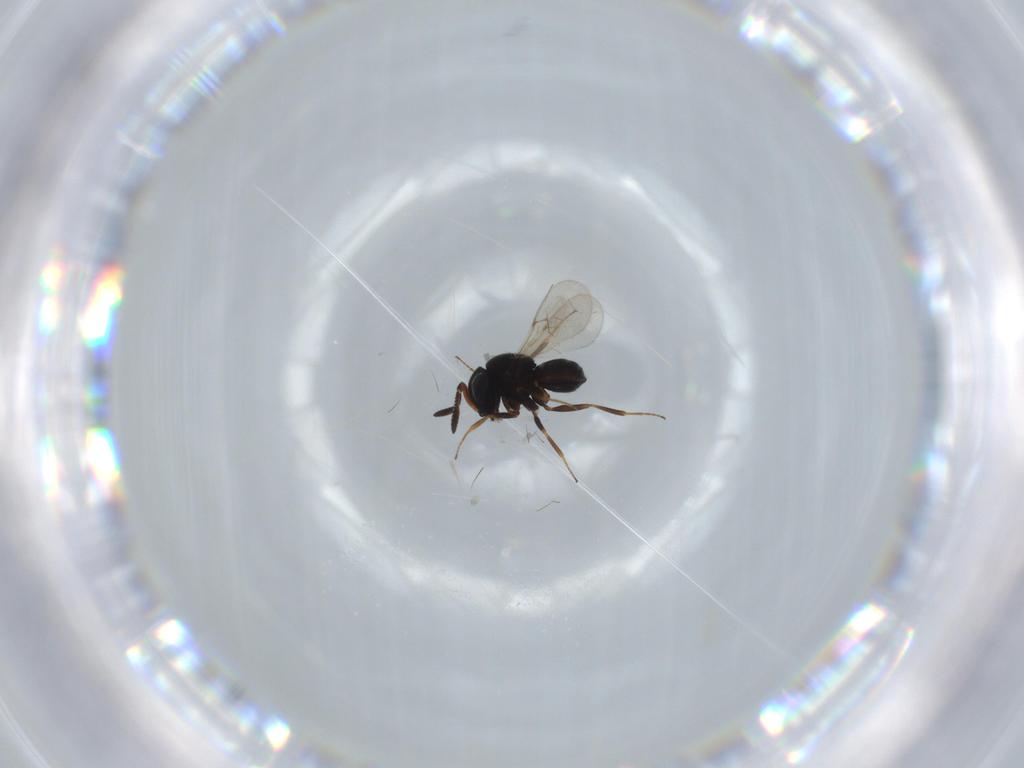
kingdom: Animalia
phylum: Arthropoda
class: Insecta
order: Hymenoptera
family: Scelionidae
